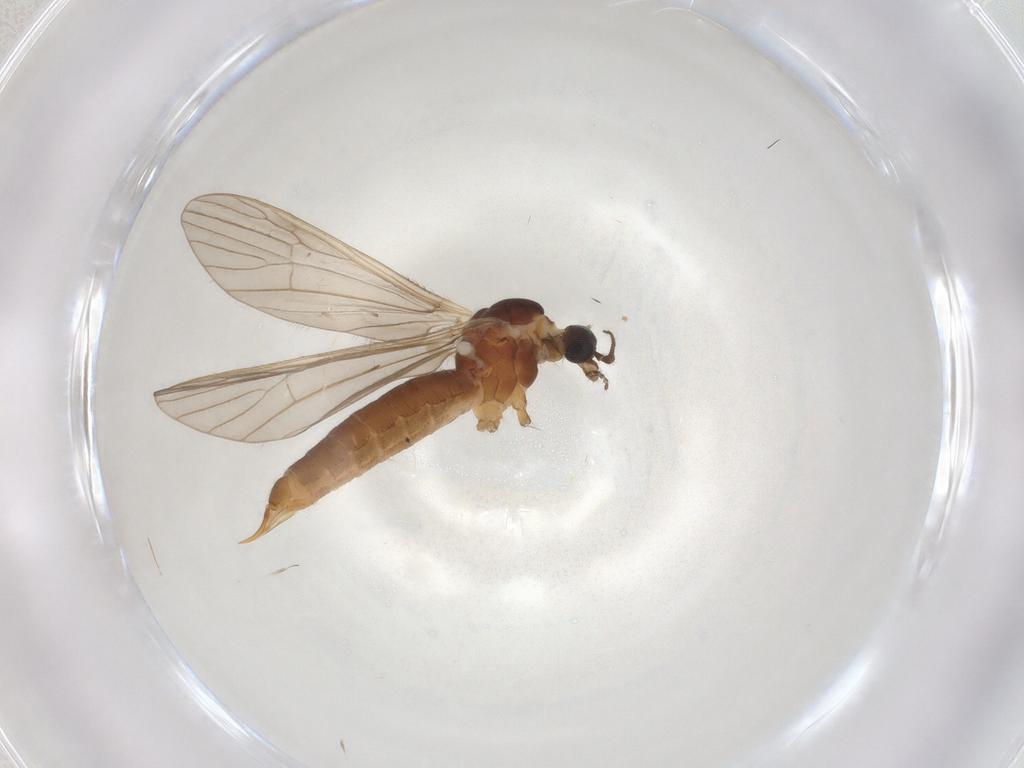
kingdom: Animalia
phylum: Arthropoda
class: Insecta
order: Diptera
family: Limoniidae
